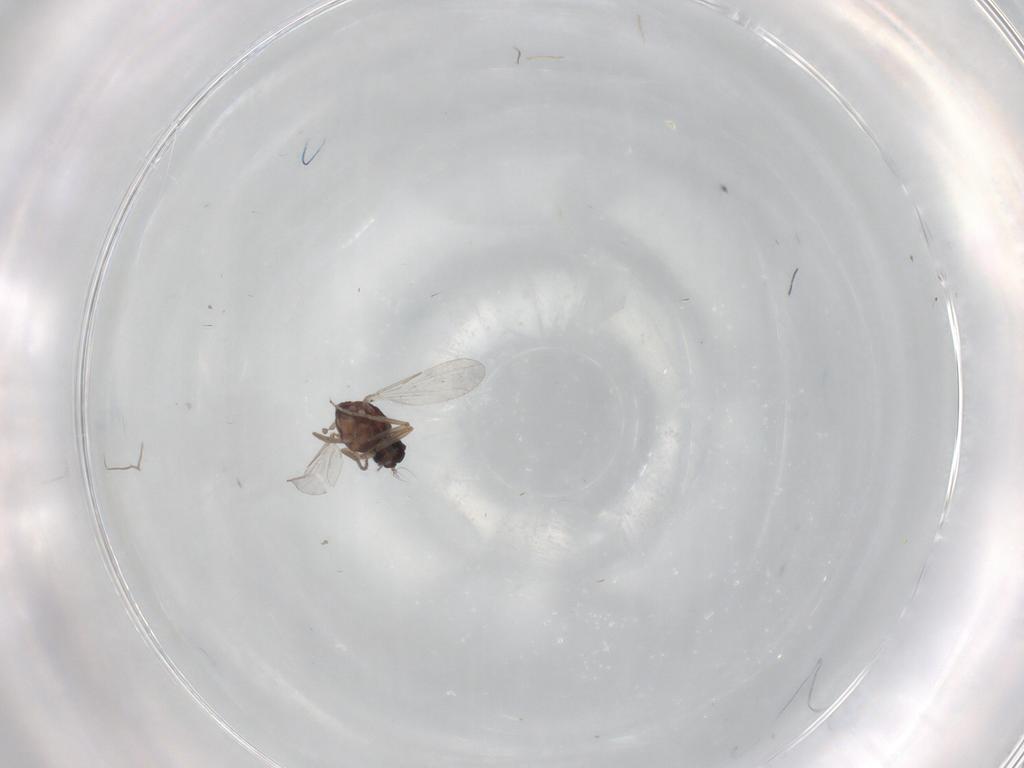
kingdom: Animalia
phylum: Arthropoda
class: Insecta
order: Diptera
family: Ceratopogonidae
